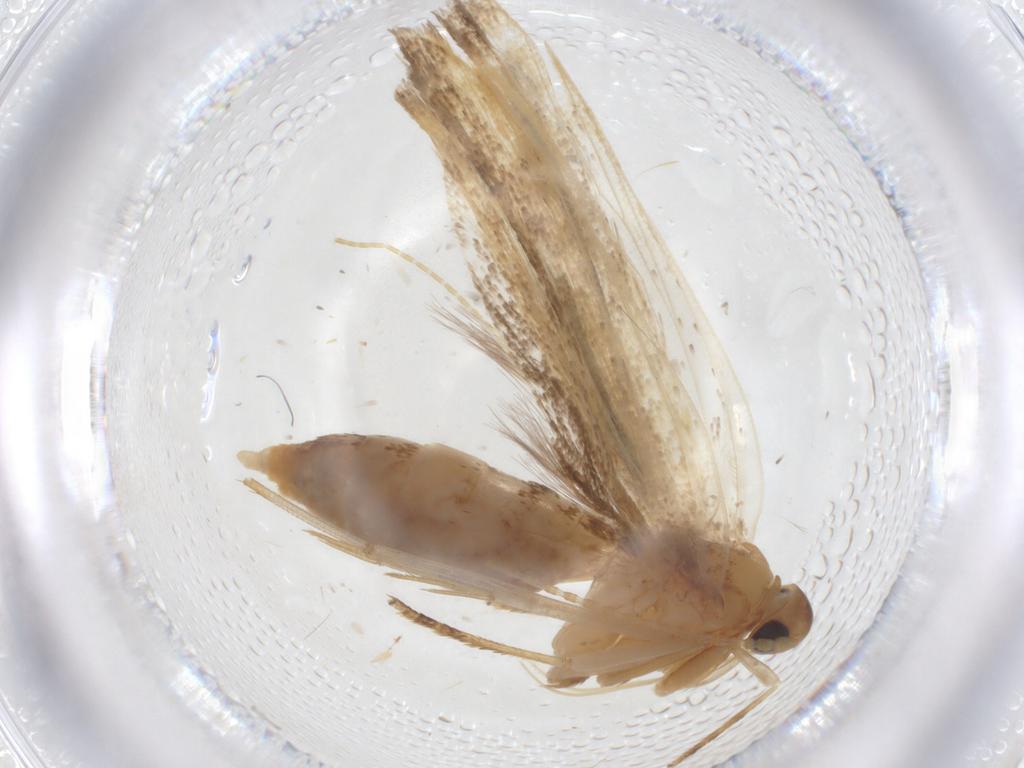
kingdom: Animalia
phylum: Arthropoda
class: Insecta
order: Lepidoptera
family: Lecithoceridae
